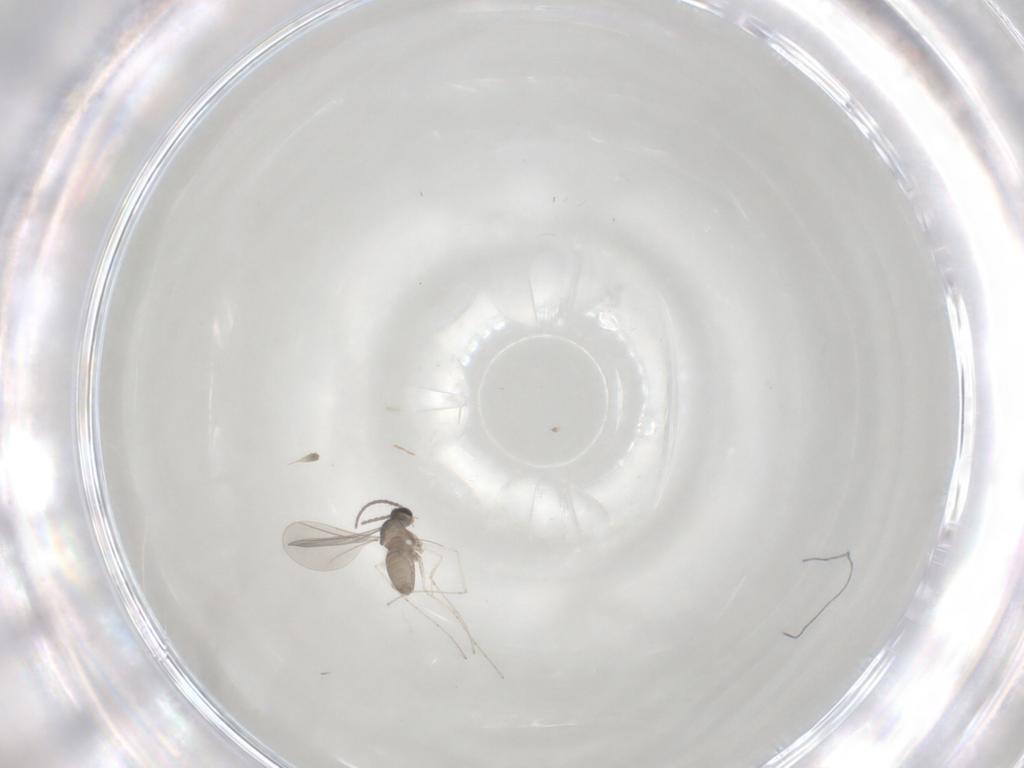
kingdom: Animalia
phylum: Arthropoda
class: Insecta
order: Diptera
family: Cecidomyiidae
